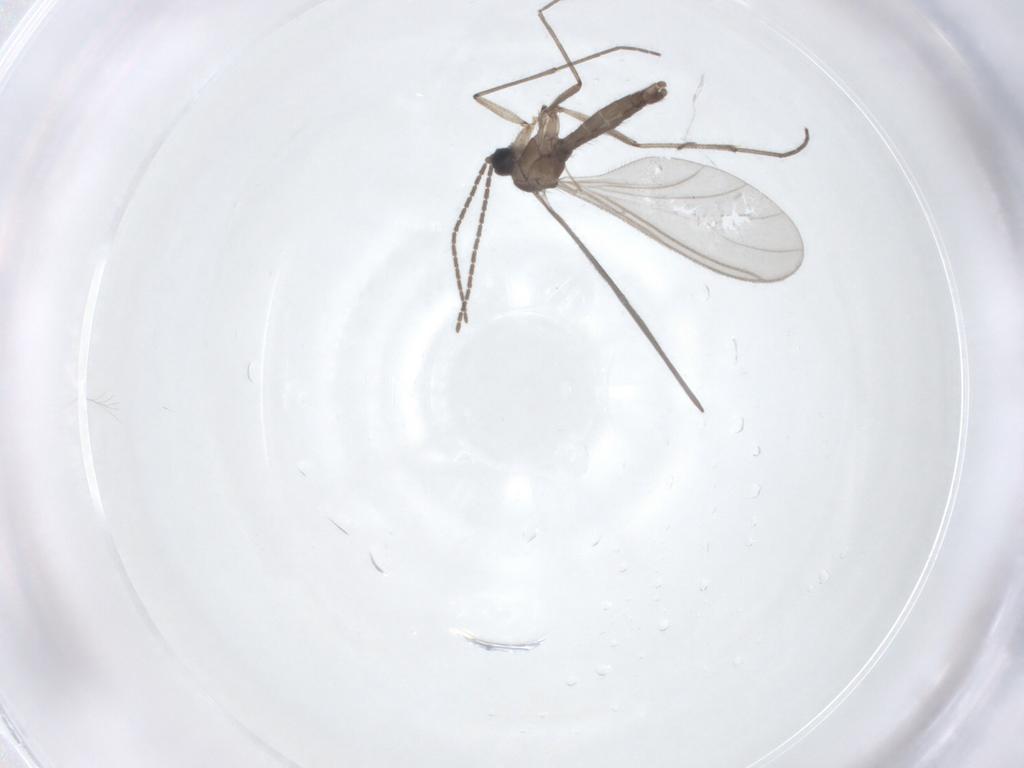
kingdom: Animalia
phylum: Arthropoda
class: Insecta
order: Diptera
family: Sciaridae
